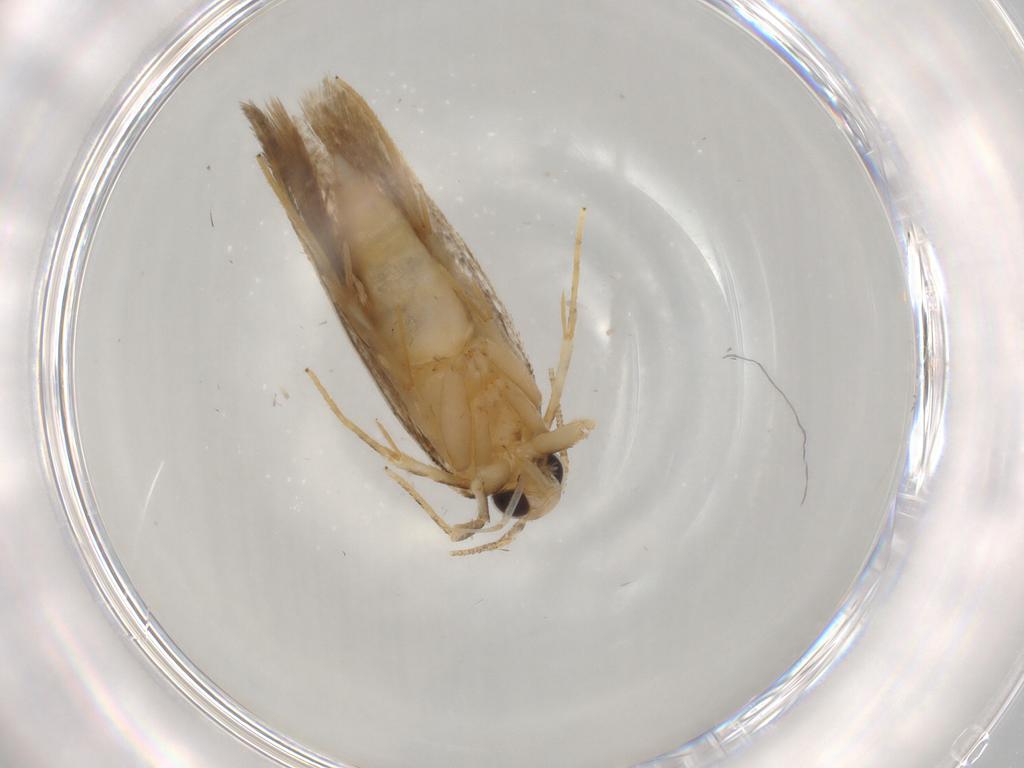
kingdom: Animalia
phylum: Arthropoda
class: Insecta
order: Lepidoptera
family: Autostichidae
